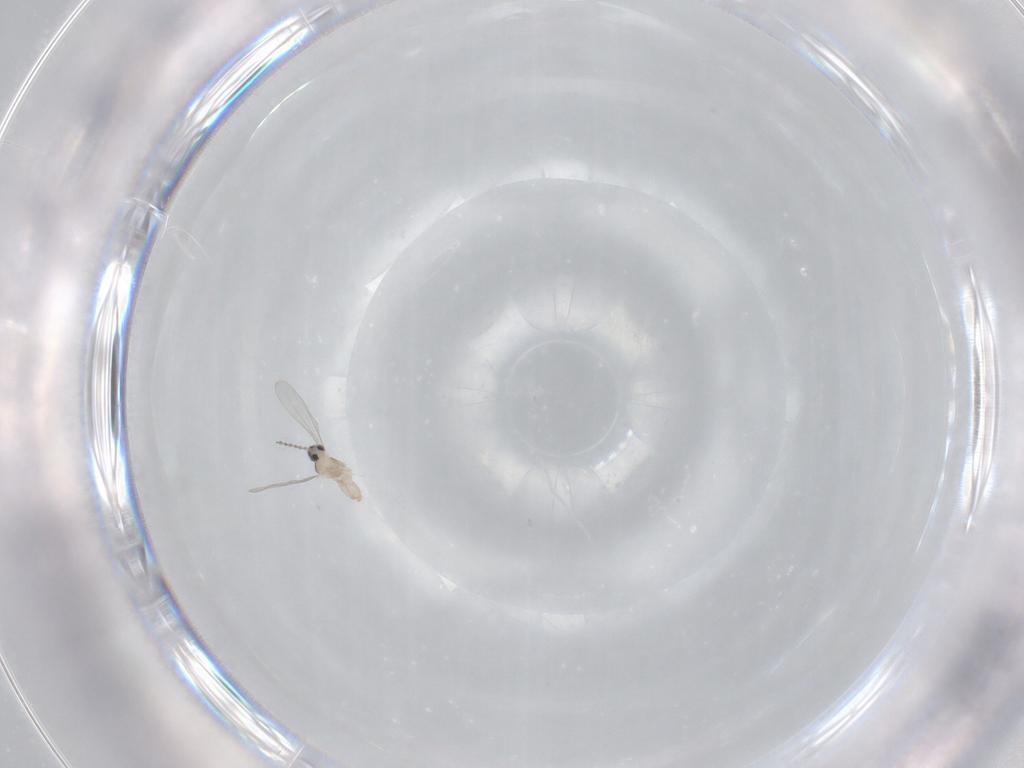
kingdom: Animalia
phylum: Arthropoda
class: Insecta
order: Diptera
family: Cecidomyiidae
